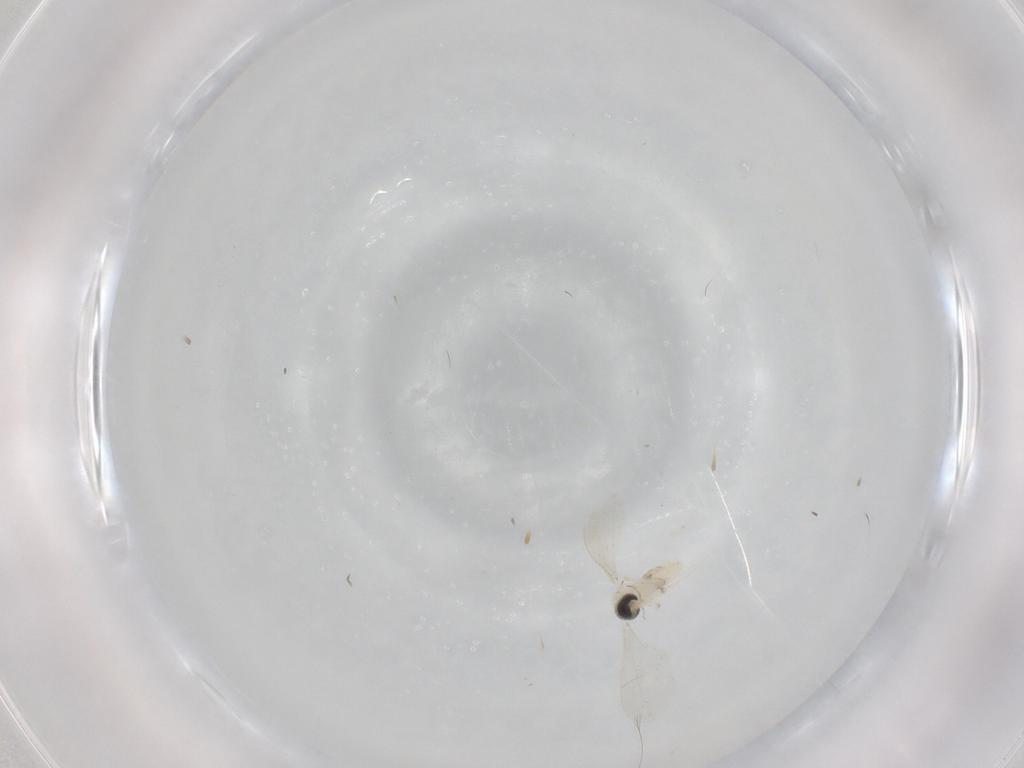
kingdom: Animalia
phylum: Arthropoda
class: Insecta
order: Diptera
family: Cecidomyiidae
